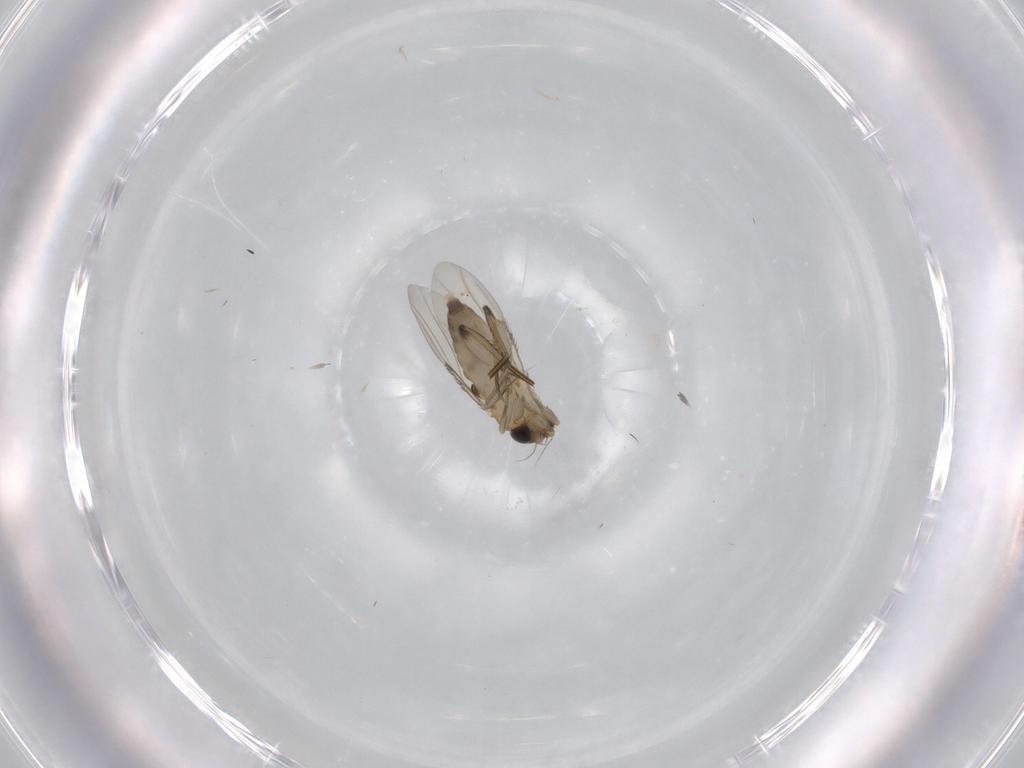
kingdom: Animalia
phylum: Arthropoda
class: Insecta
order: Diptera
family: Phoridae
